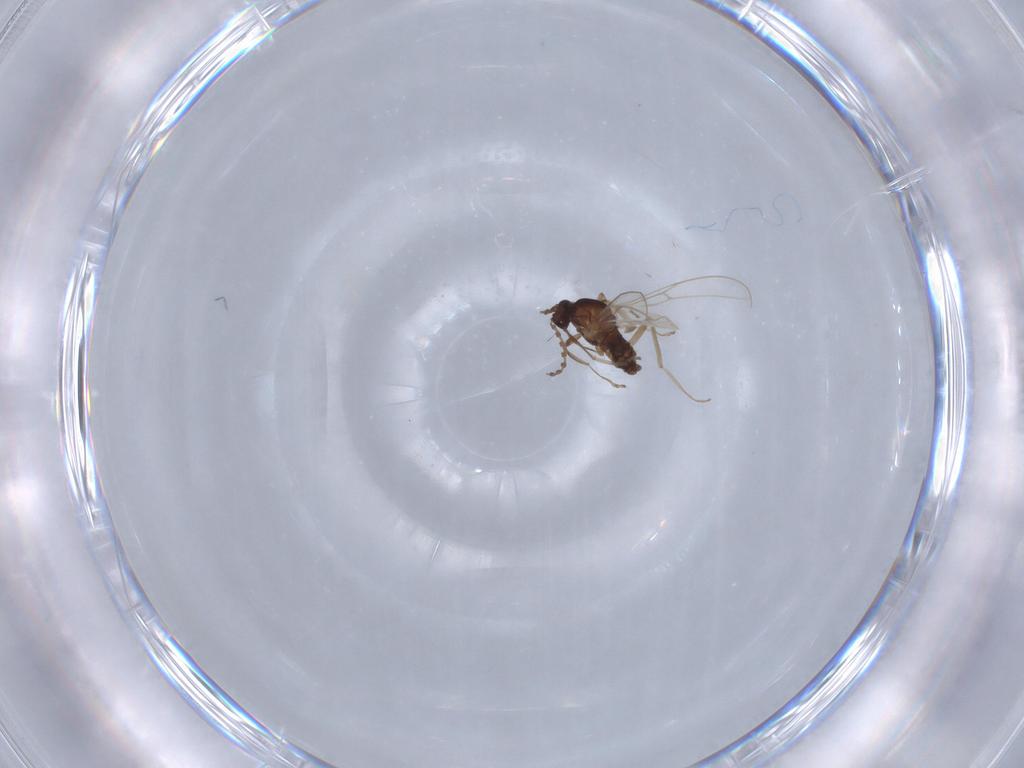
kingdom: Animalia
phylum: Arthropoda
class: Insecta
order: Diptera
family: Cecidomyiidae
